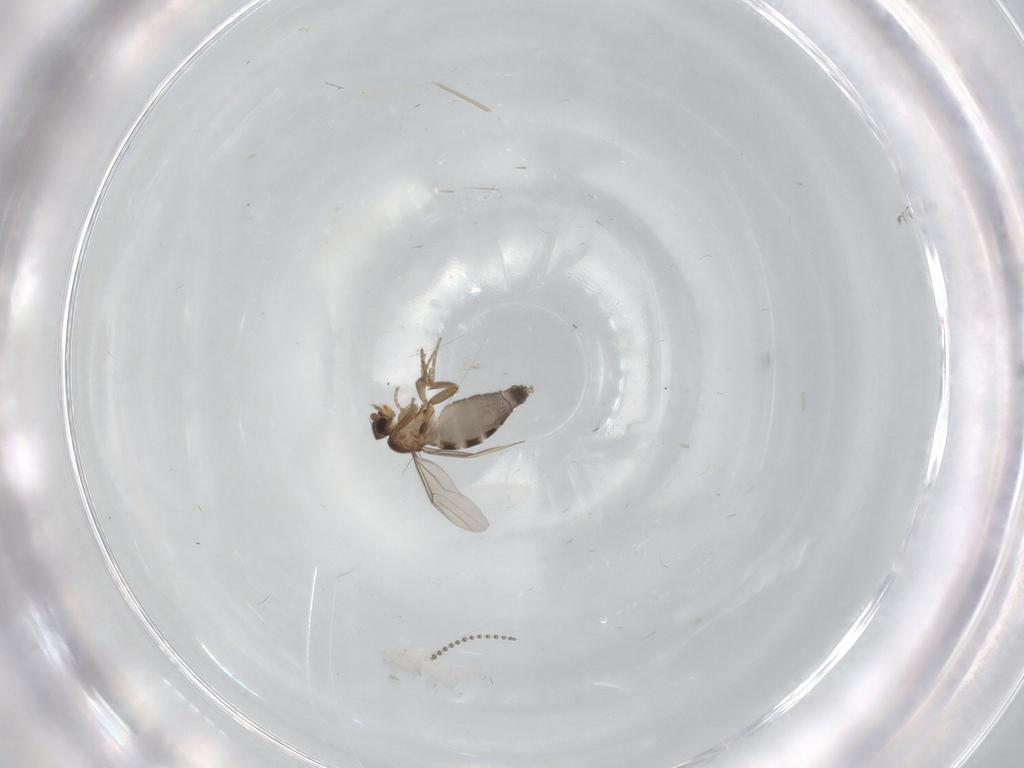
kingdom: Animalia
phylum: Arthropoda
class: Insecta
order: Diptera
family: Phoridae
